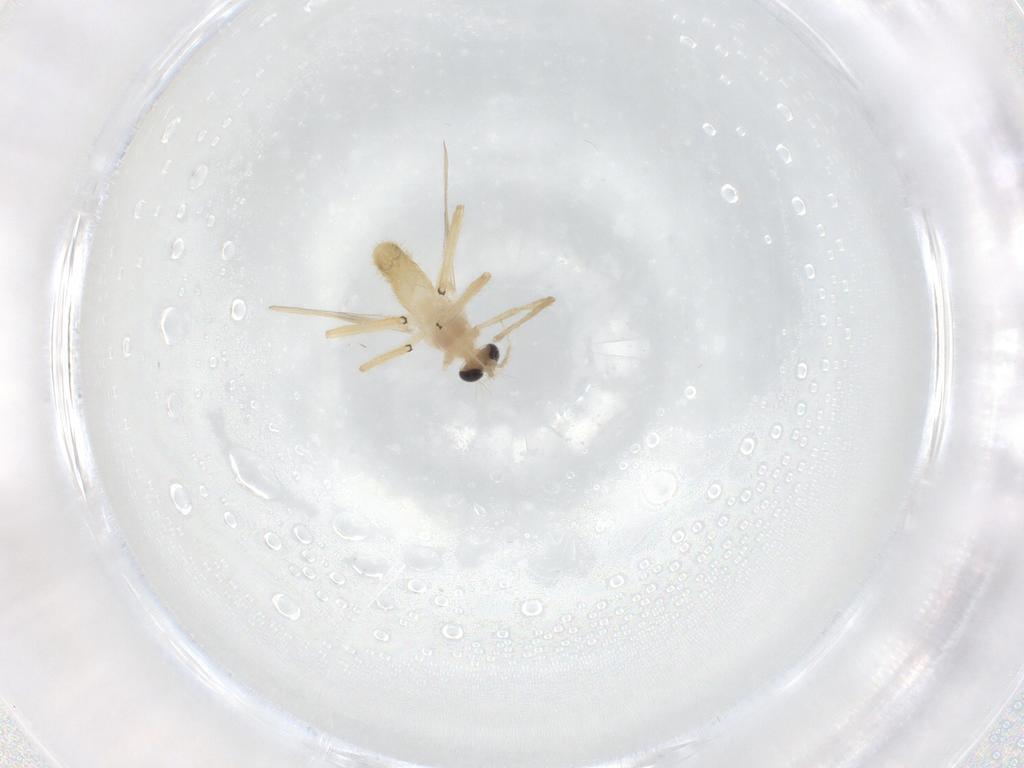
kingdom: Animalia
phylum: Arthropoda
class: Insecta
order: Diptera
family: Chironomidae
